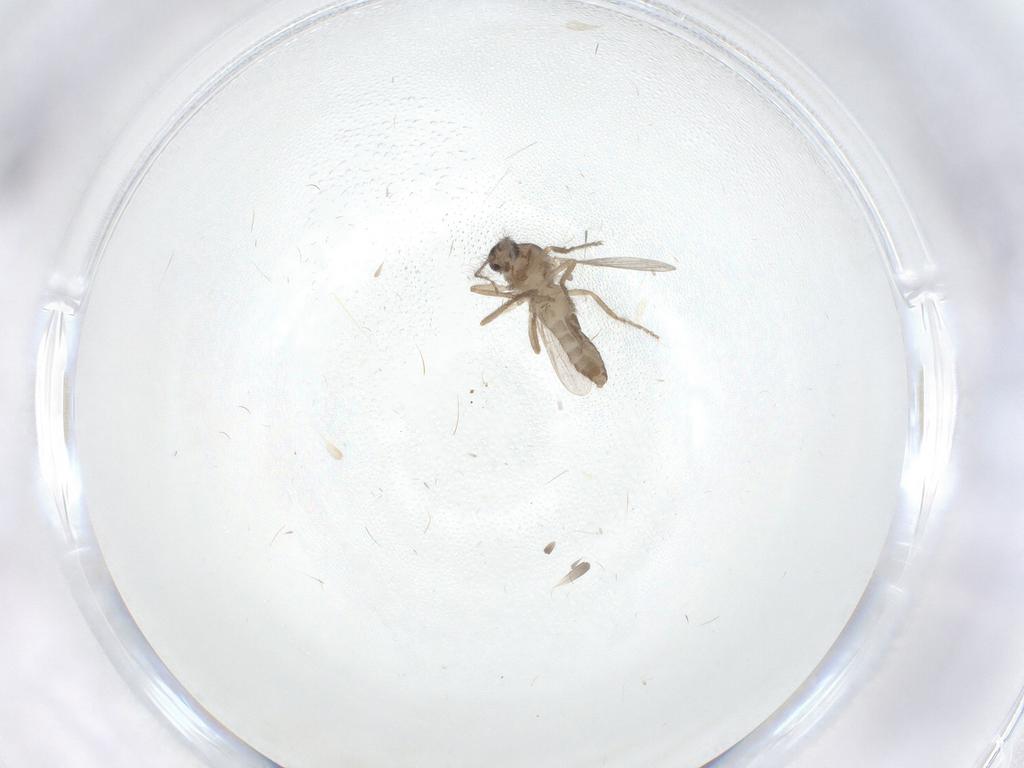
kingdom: Animalia
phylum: Arthropoda
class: Insecta
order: Diptera
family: Ceratopogonidae
